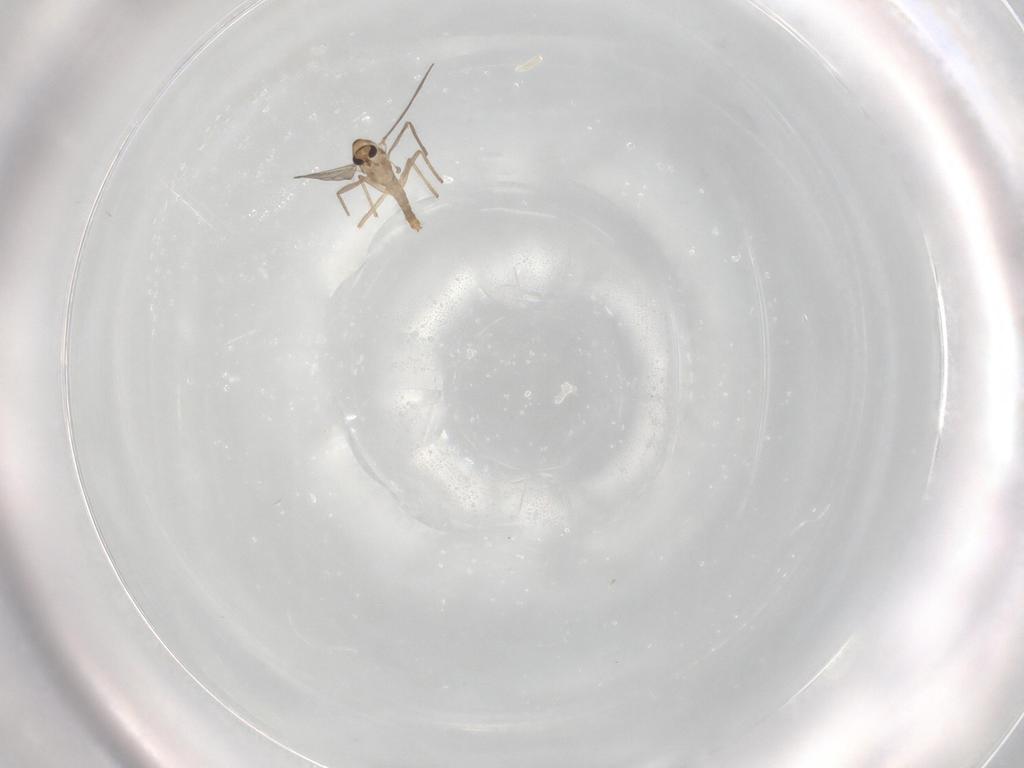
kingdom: Animalia
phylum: Arthropoda
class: Insecta
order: Diptera
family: Chironomidae
